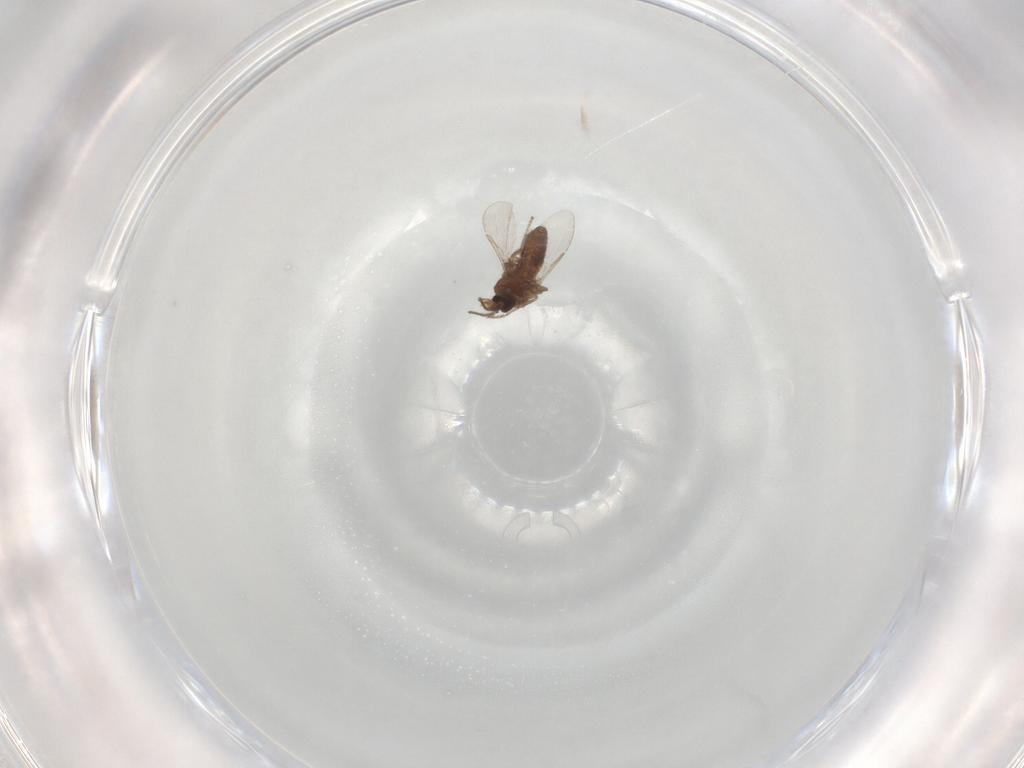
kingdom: Animalia
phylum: Arthropoda
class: Insecta
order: Diptera
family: Ceratopogonidae
